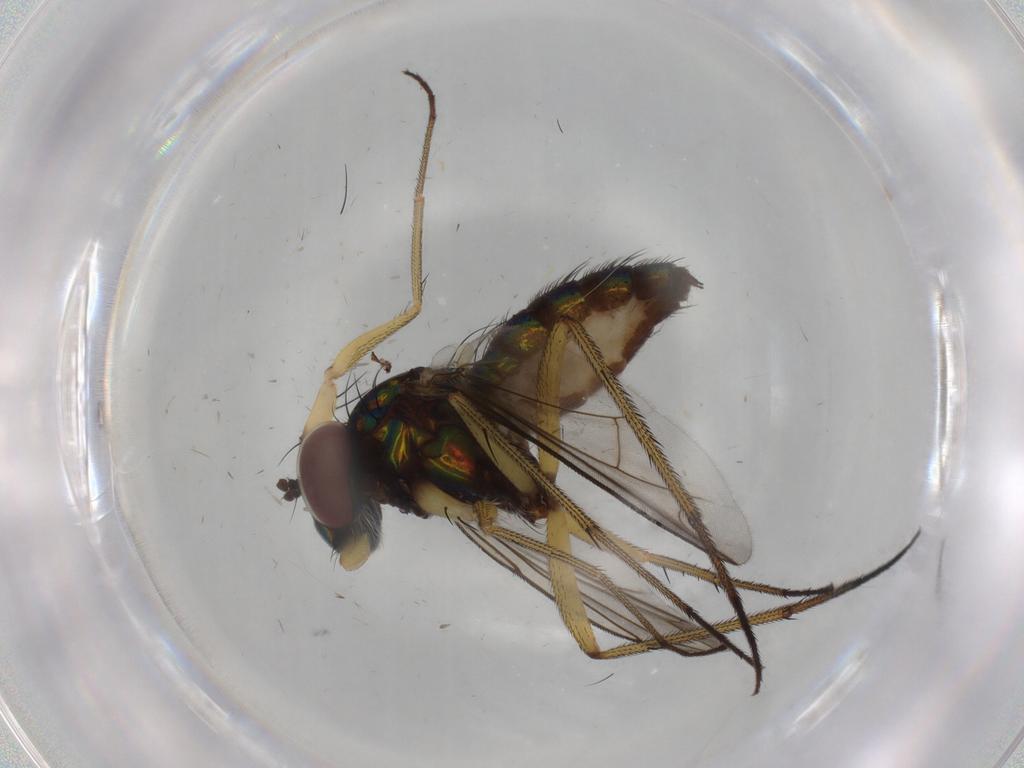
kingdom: Animalia
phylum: Arthropoda
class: Insecta
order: Diptera
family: Dolichopodidae
